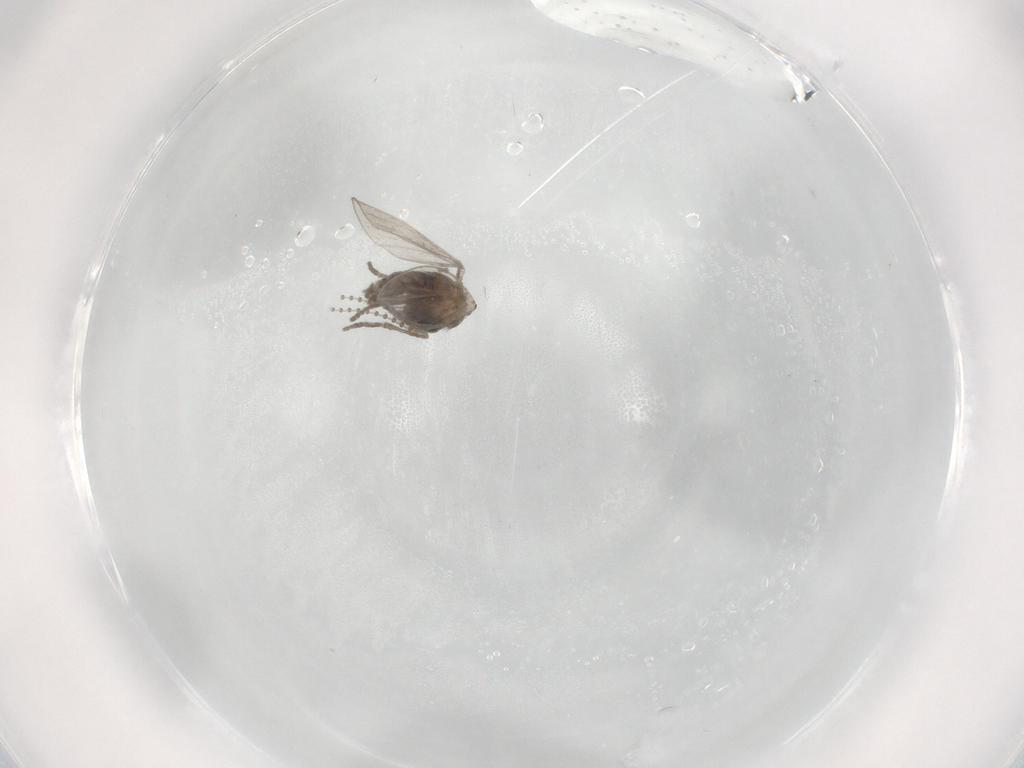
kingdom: Animalia
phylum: Arthropoda
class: Insecta
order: Diptera
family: Psychodidae
